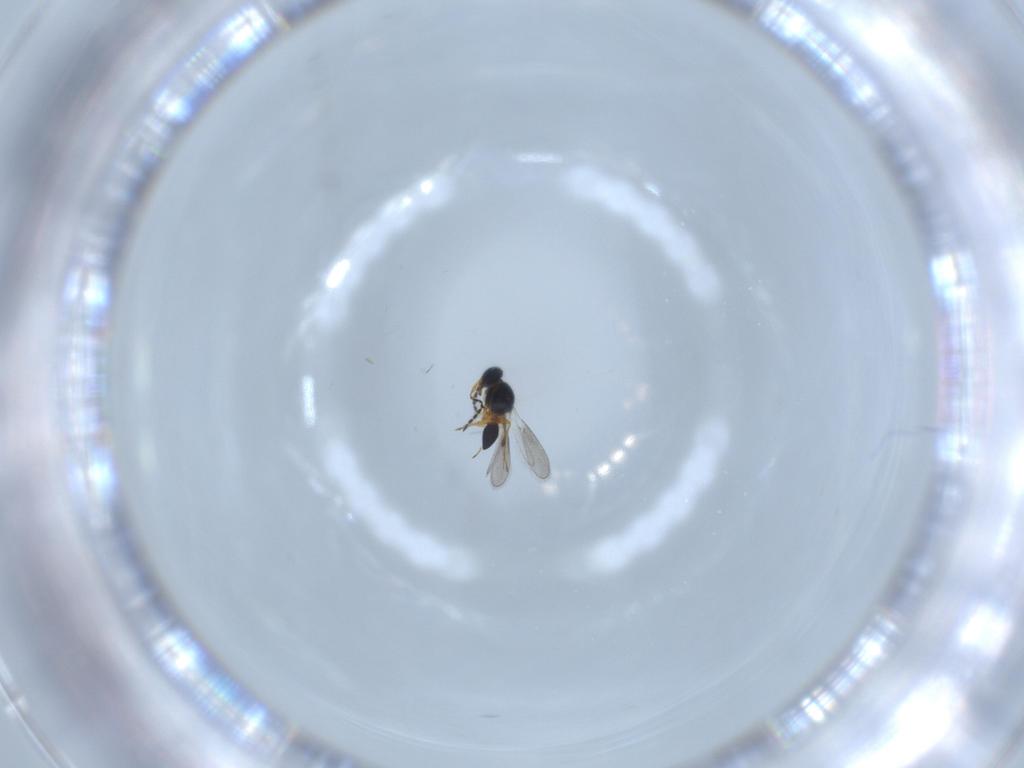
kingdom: Animalia
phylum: Arthropoda
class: Insecta
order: Hymenoptera
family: Platygastridae
